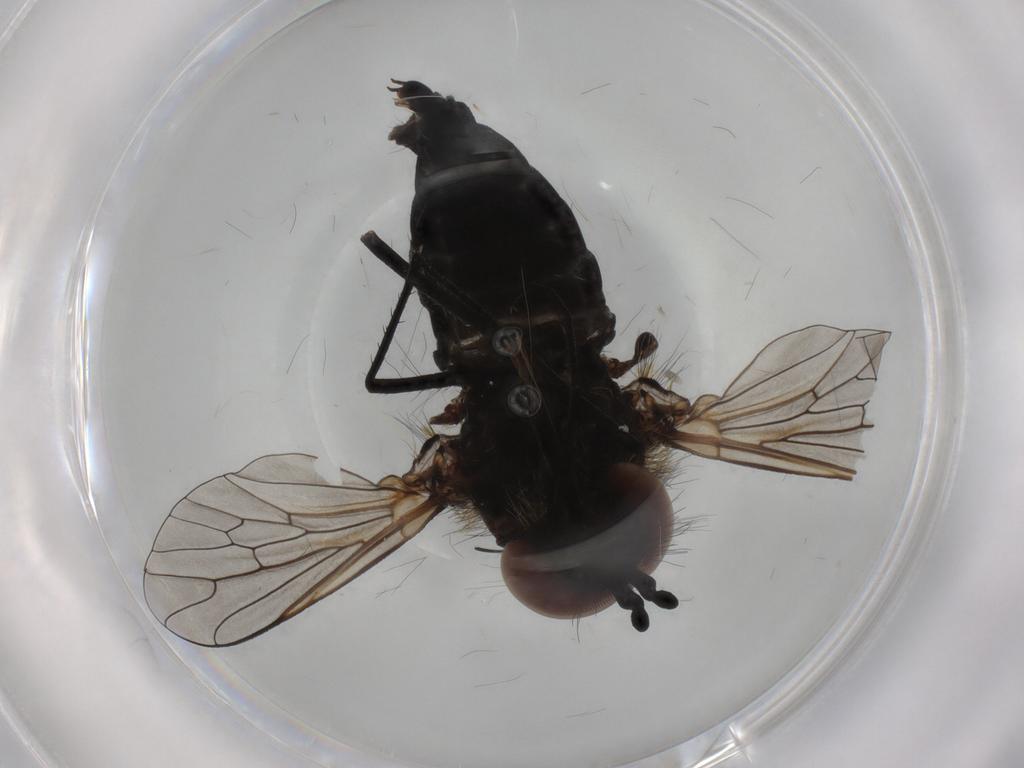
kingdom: Animalia
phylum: Arthropoda
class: Insecta
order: Diptera
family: Bombyliidae
